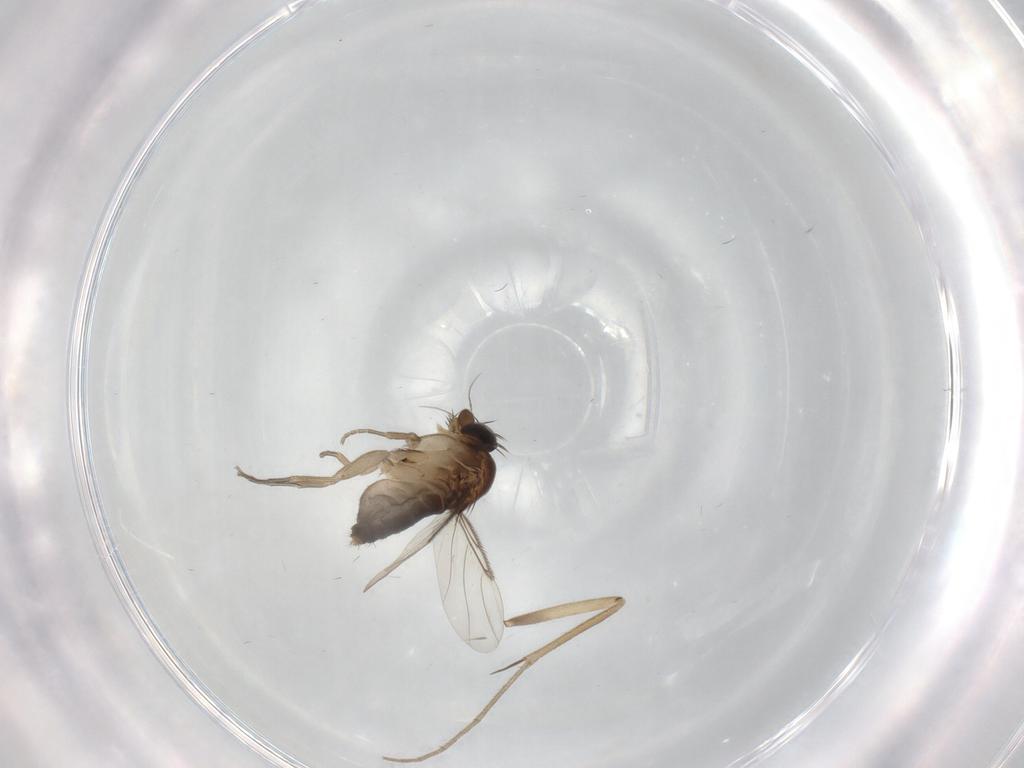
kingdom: Animalia
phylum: Arthropoda
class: Insecta
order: Diptera
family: Phoridae
